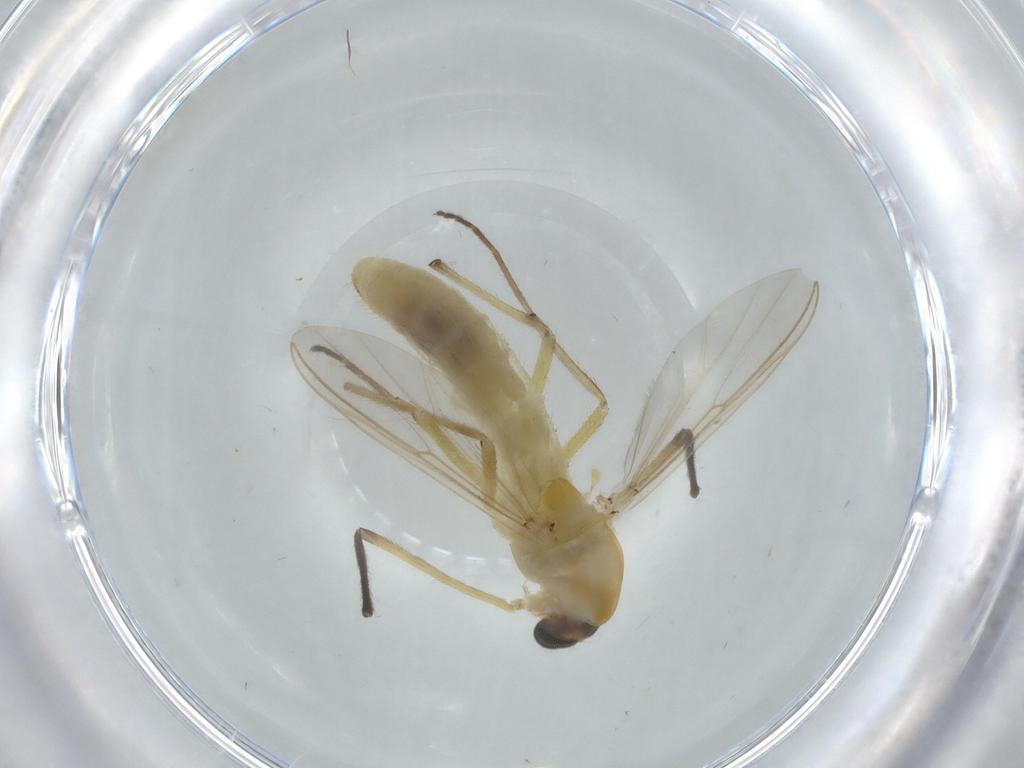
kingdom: Animalia
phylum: Arthropoda
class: Insecta
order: Diptera
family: Cecidomyiidae
